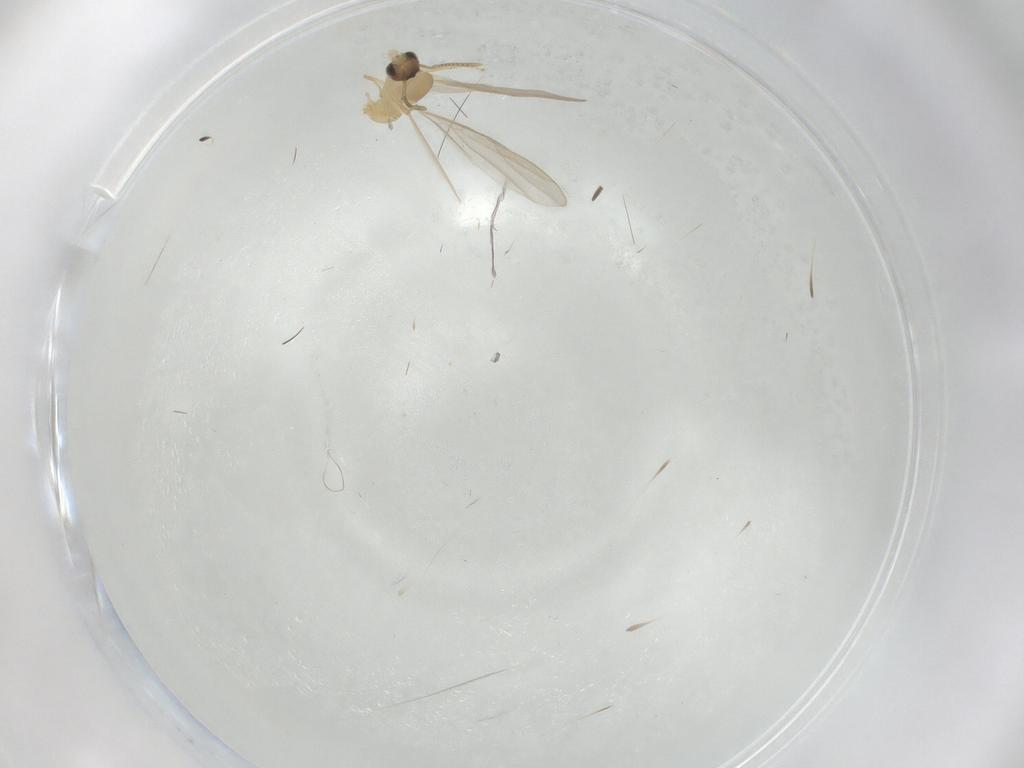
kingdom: Animalia
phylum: Arthropoda
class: Insecta
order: Hymenoptera
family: Formicidae
